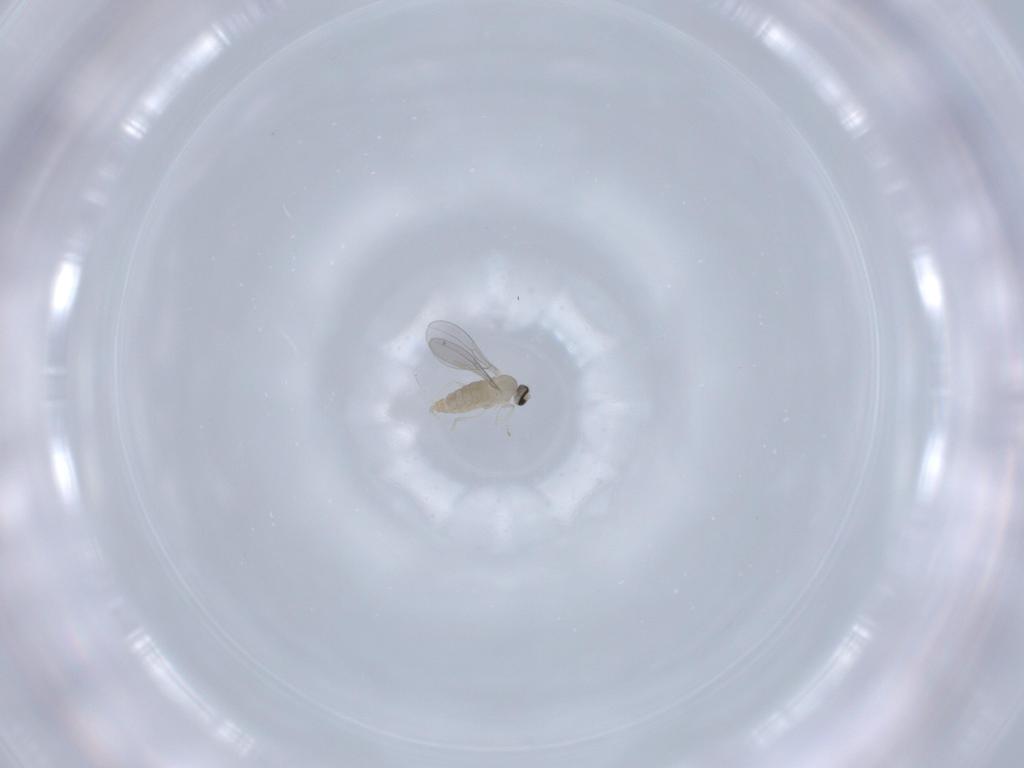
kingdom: Animalia
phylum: Arthropoda
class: Insecta
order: Diptera
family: Cecidomyiidae
